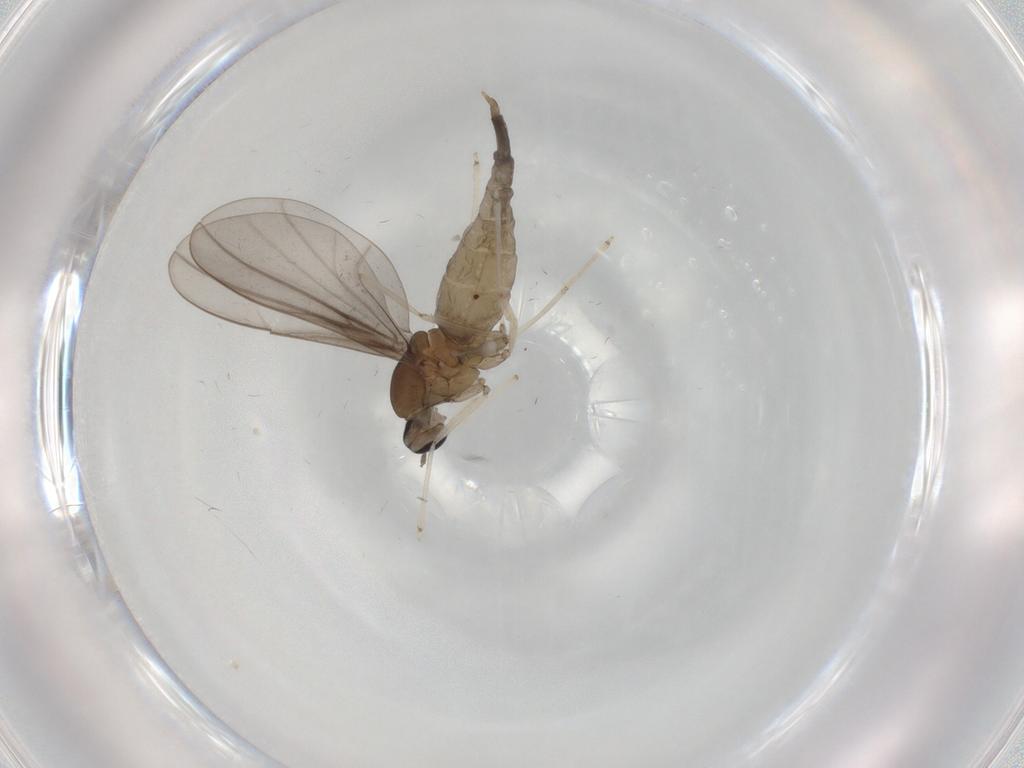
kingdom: Animalia
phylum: Arthropoda
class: Insecta
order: Diptera
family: Cecidomyiidae
